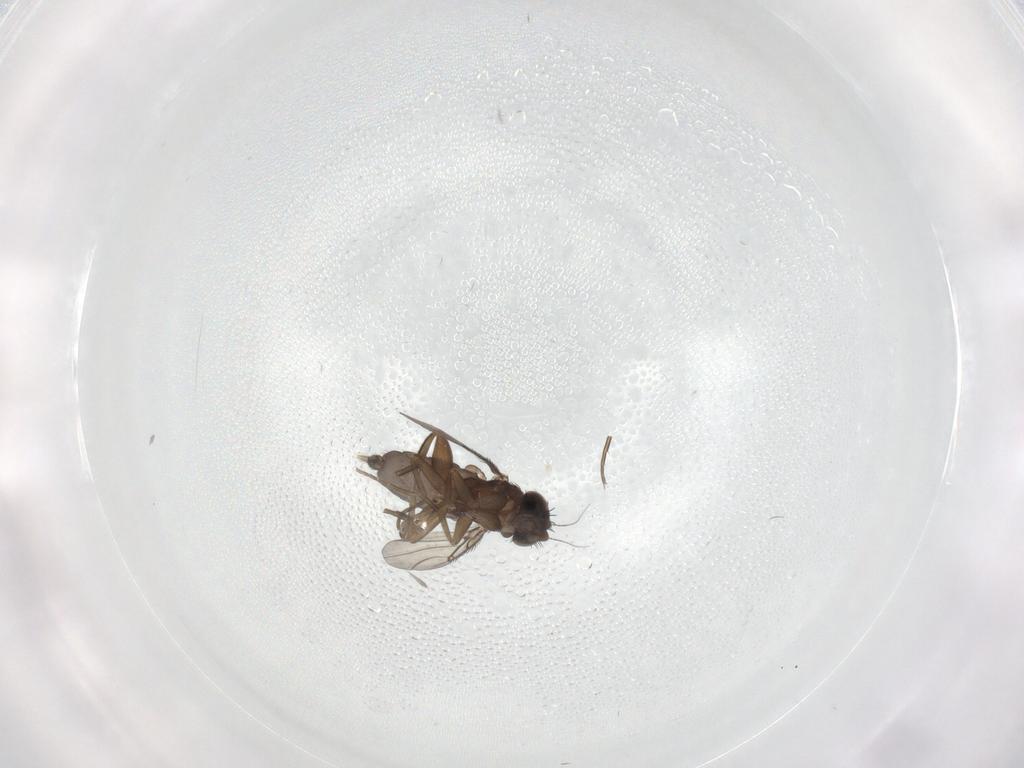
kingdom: Animalia
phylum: Arthropoda
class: Insecta
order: Diptera
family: Phoridae
